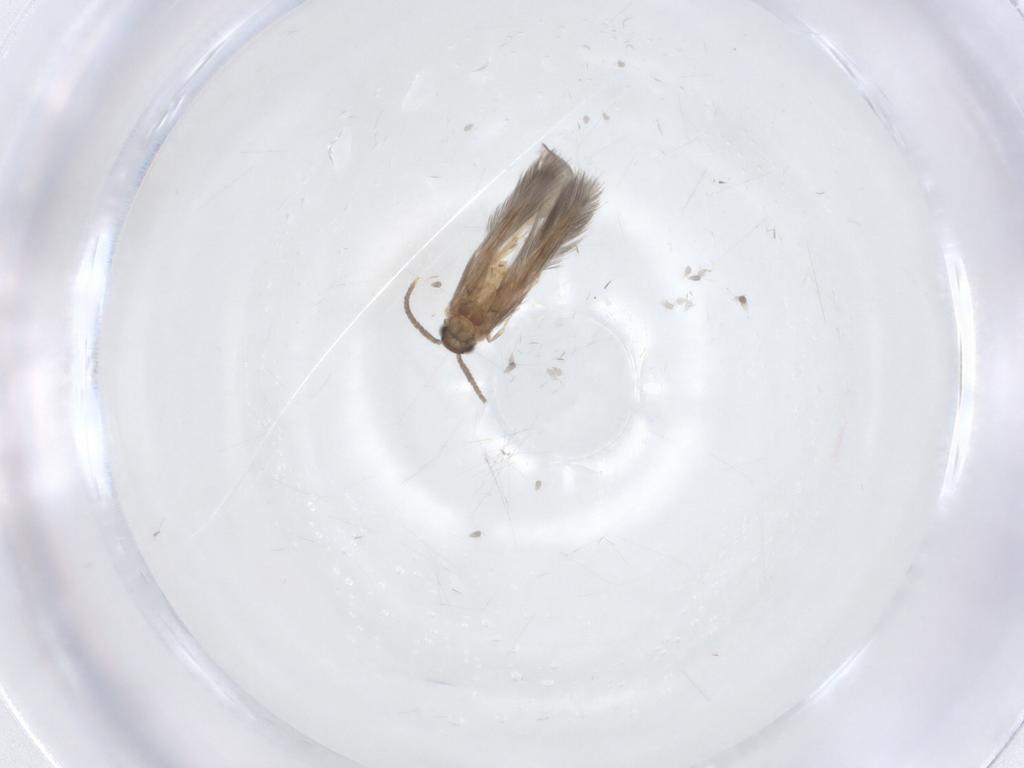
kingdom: Animalia
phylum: Arthropoda
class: Insecta
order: Trichoptera
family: Hydroptilidae
